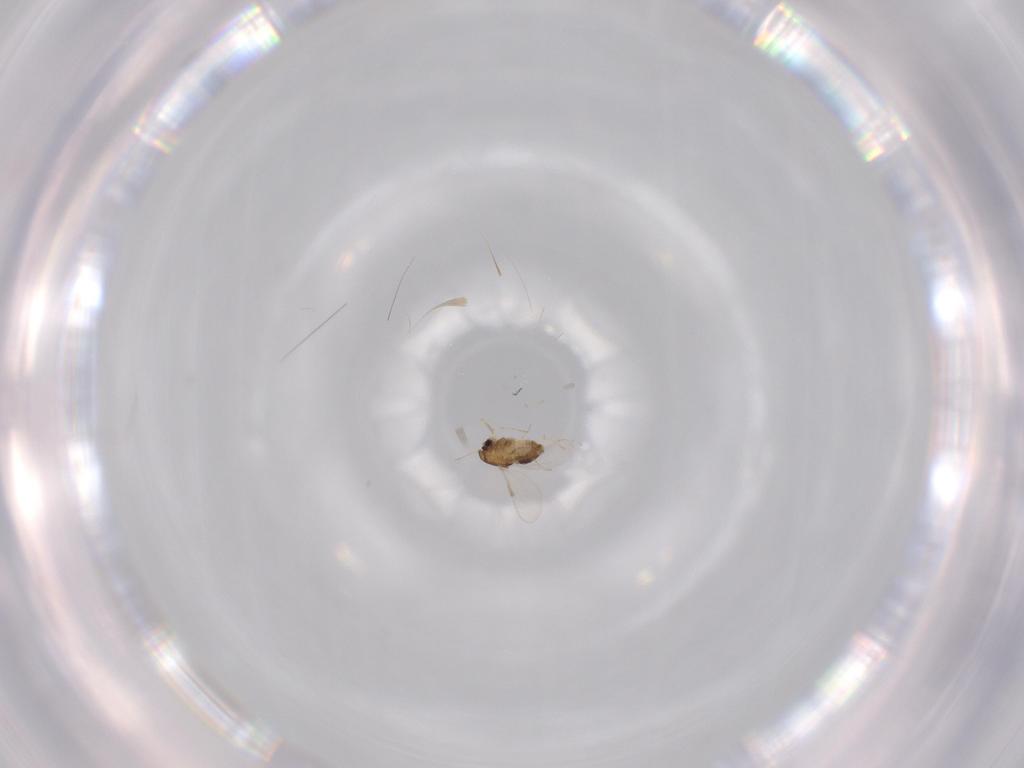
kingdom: Animalia
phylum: Arthropoda
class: Insecta
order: Diptera
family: Chironomidae
